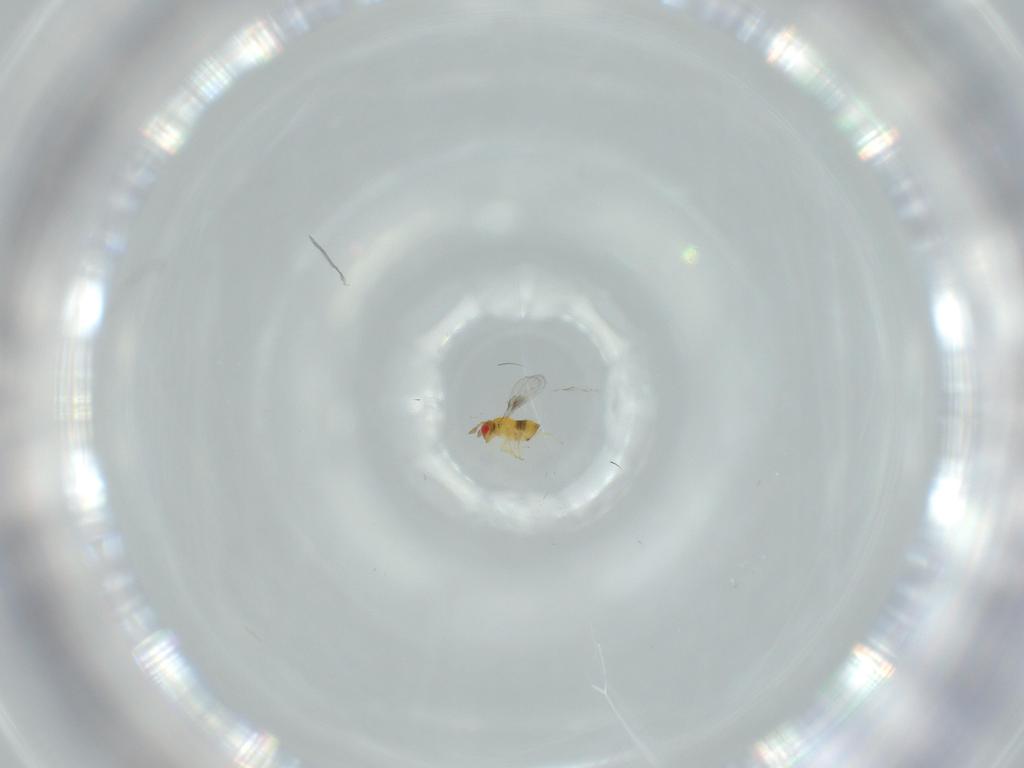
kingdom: Animalia
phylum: Arthropoda
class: Insecta
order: Hymenoptera
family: Trichogrammatidae
